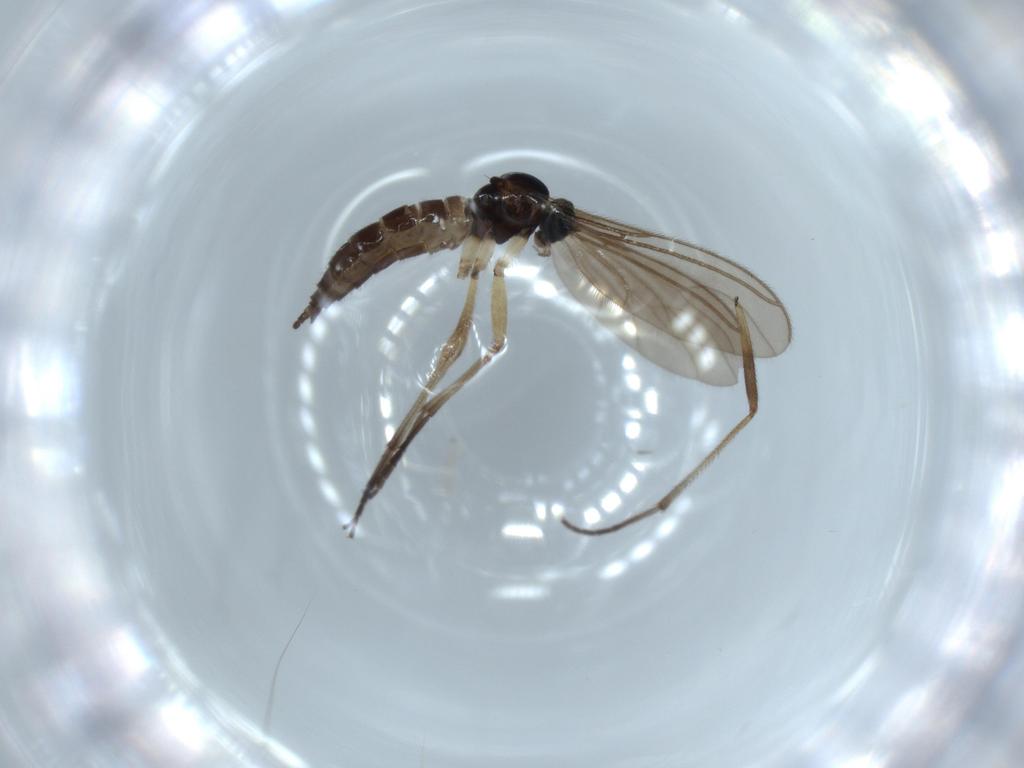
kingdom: Animalia
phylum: Arthropoda
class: Insecta
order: Diptera
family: Sciaridae
